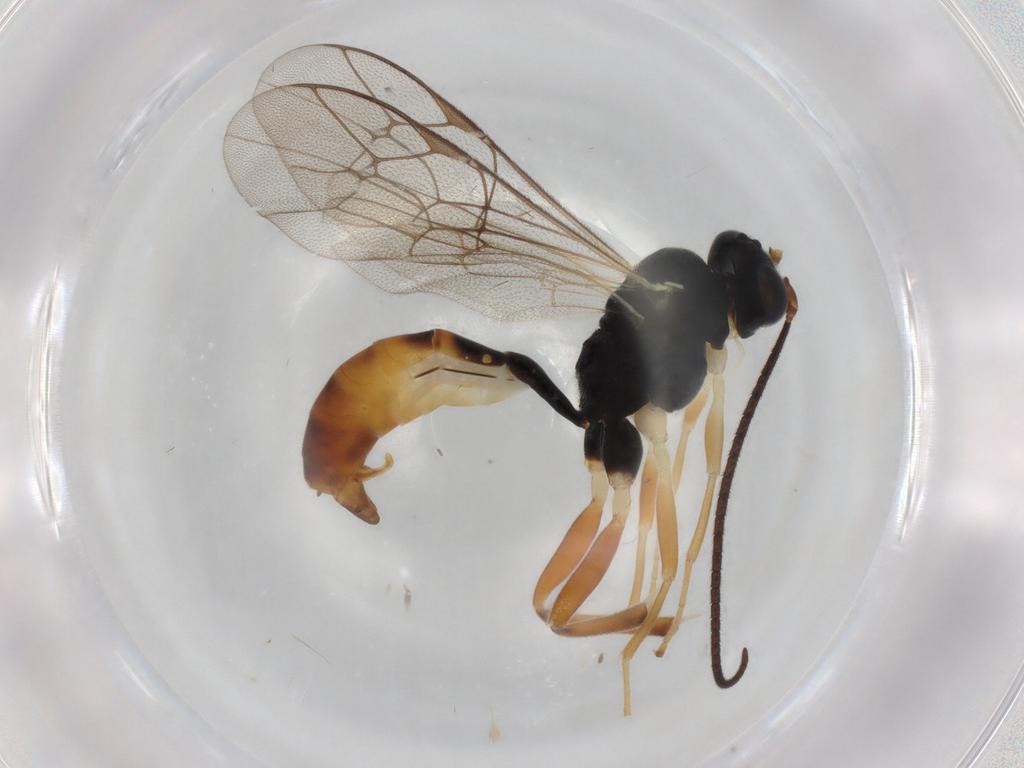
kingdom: Animalia
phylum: Arthropoda
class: Insecta
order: Hymenoptera
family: Ichneumonidae
